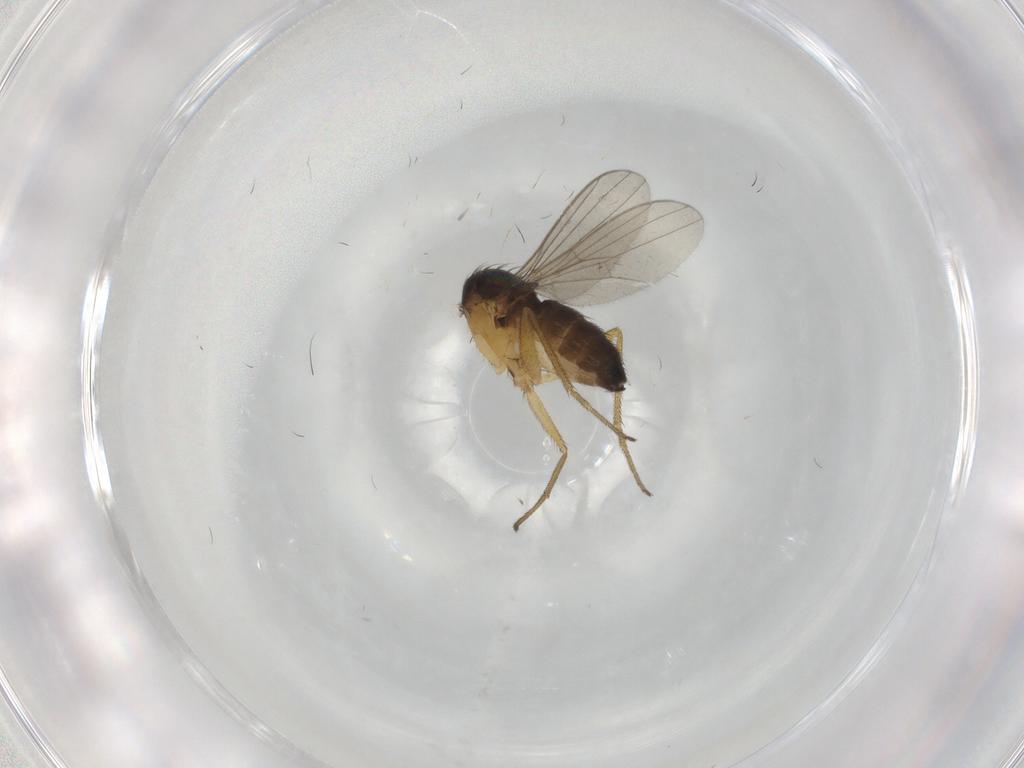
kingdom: Animalia
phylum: Arthropoda
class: Insecta
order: Diptera
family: Dolichopodidae
